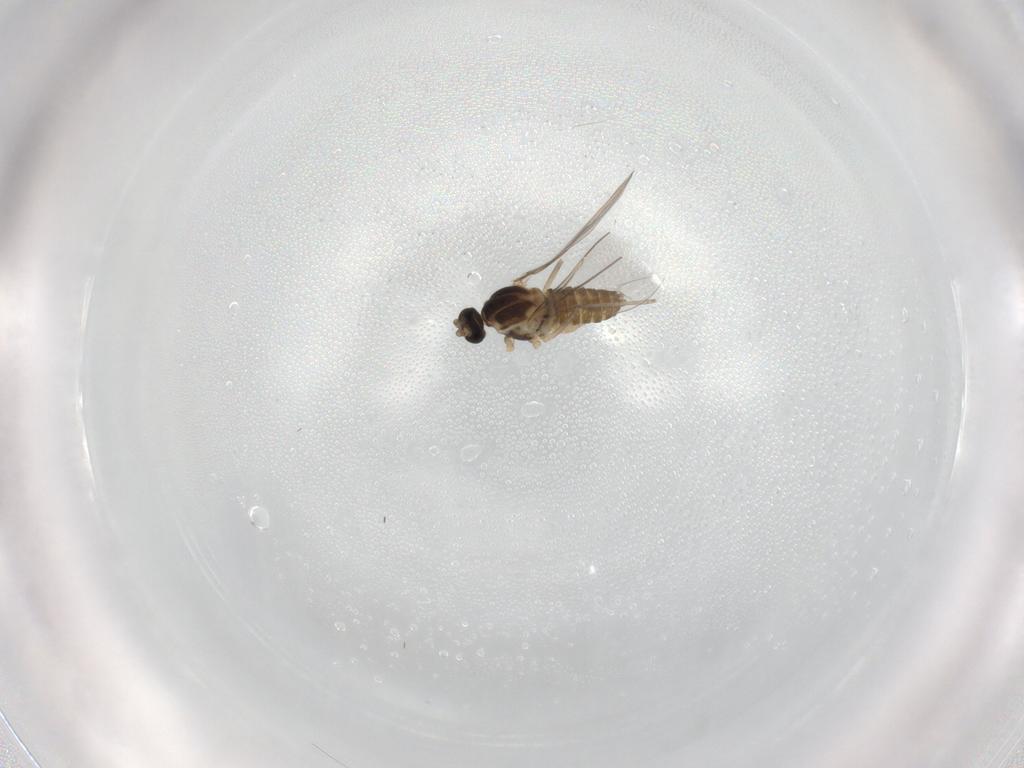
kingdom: Animalia
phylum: Arthropoda
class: Insecta
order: Diptera
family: Cecidomyiidae
